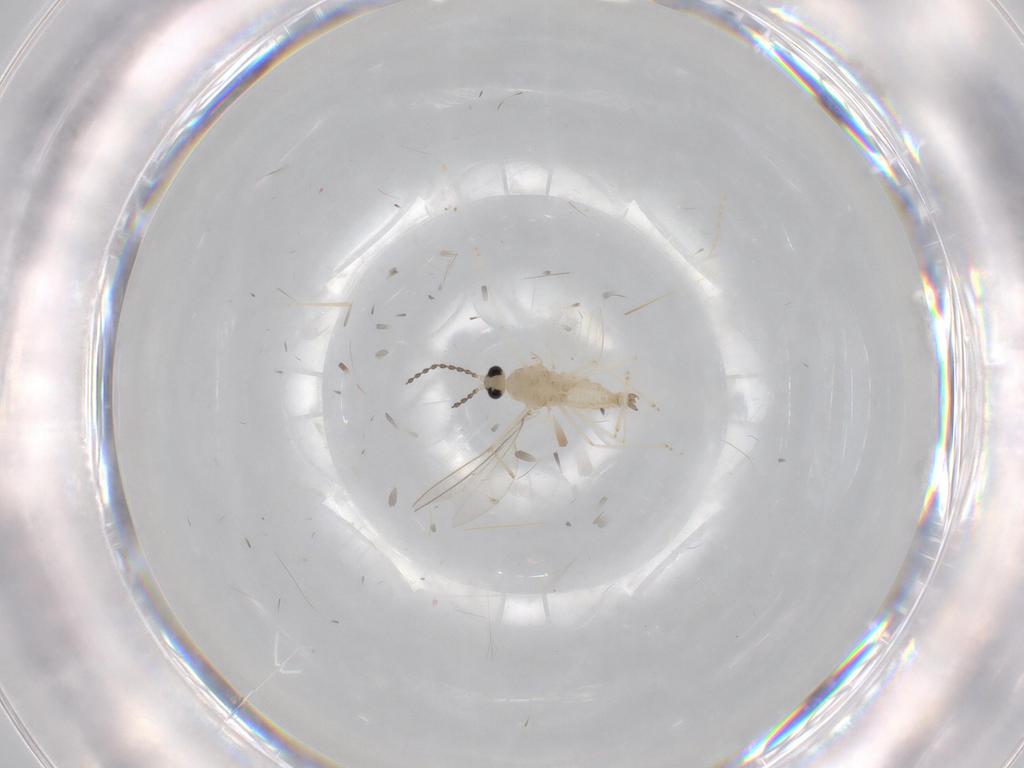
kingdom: Animalia
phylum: Arthropoda
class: Insecta
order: Diptera
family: Cecidomyiidae
